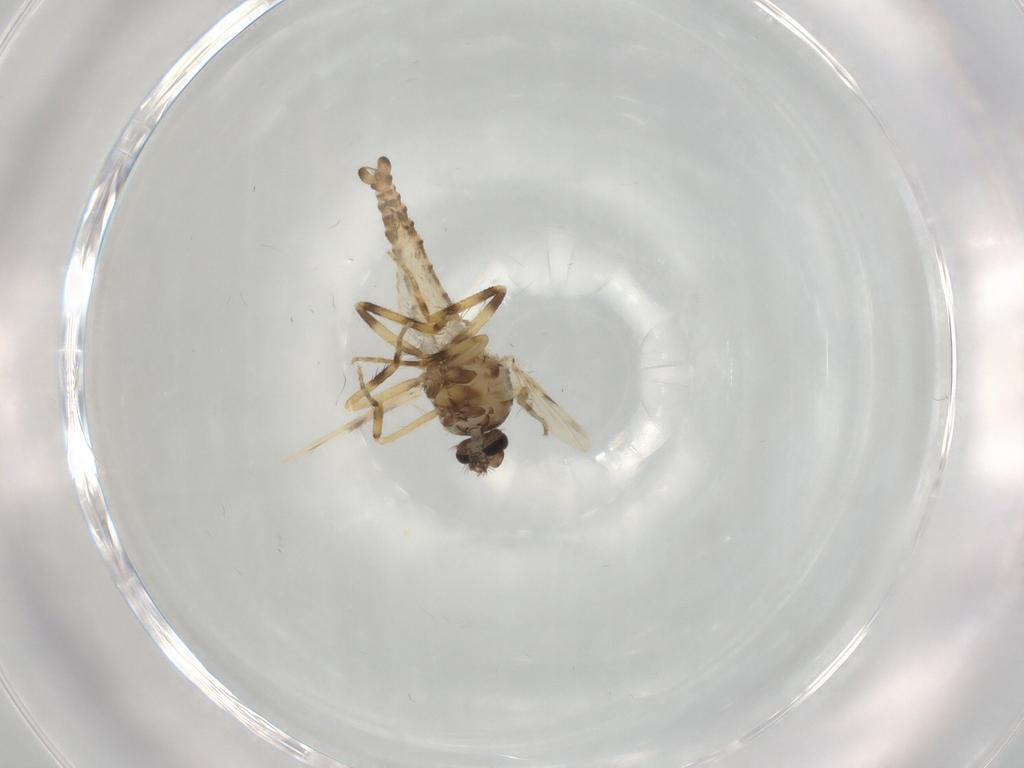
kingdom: Animalia
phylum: Arthropoda
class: Insecta
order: Diptera
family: Ceratopogonidae
